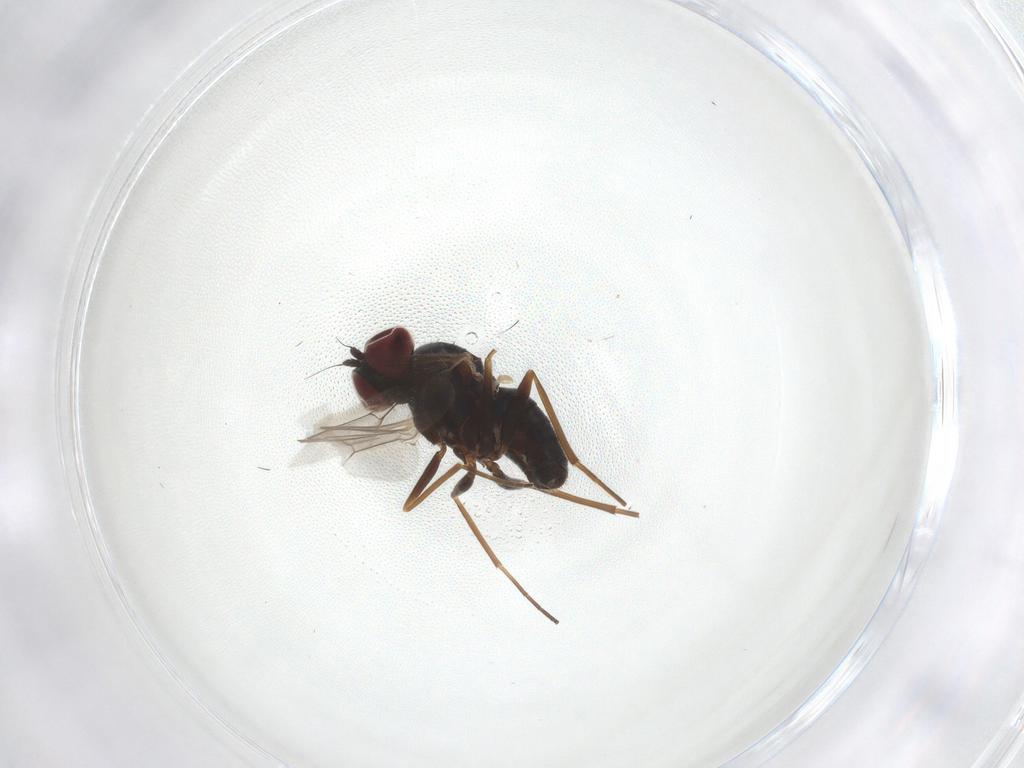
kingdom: Animalia
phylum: Arthropoda
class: Insecta
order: Diptera
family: Dolichopodidae
